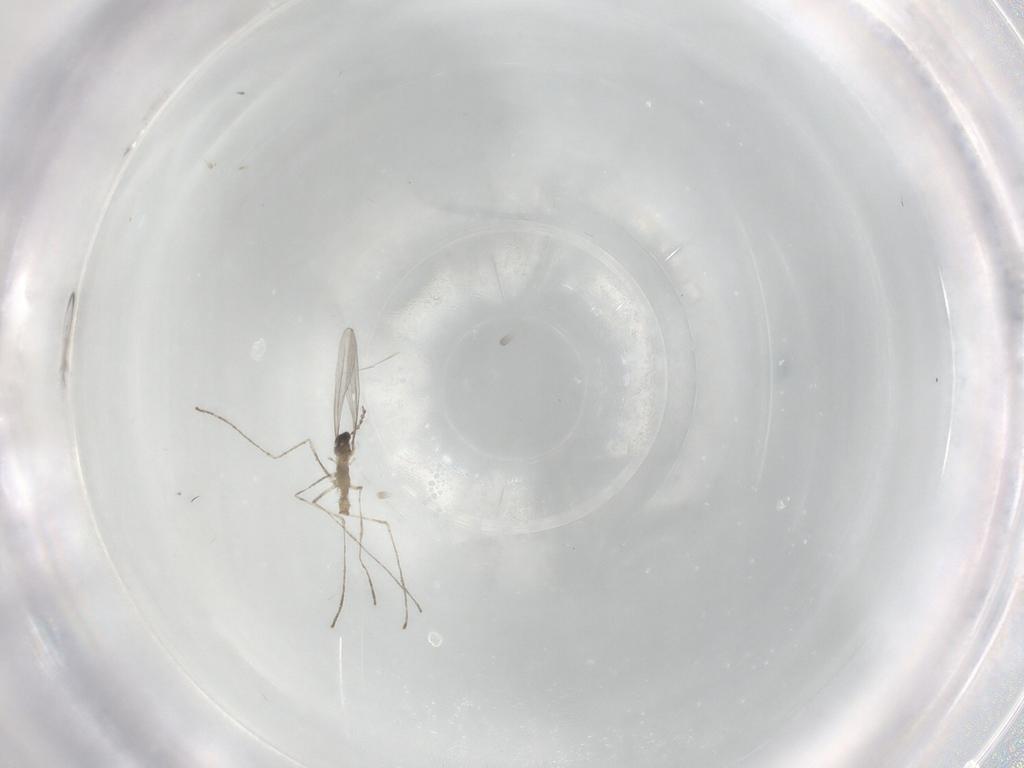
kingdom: Animalia
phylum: Arthropoda
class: Insecta
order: Diptera
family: Cecidomyiidae
